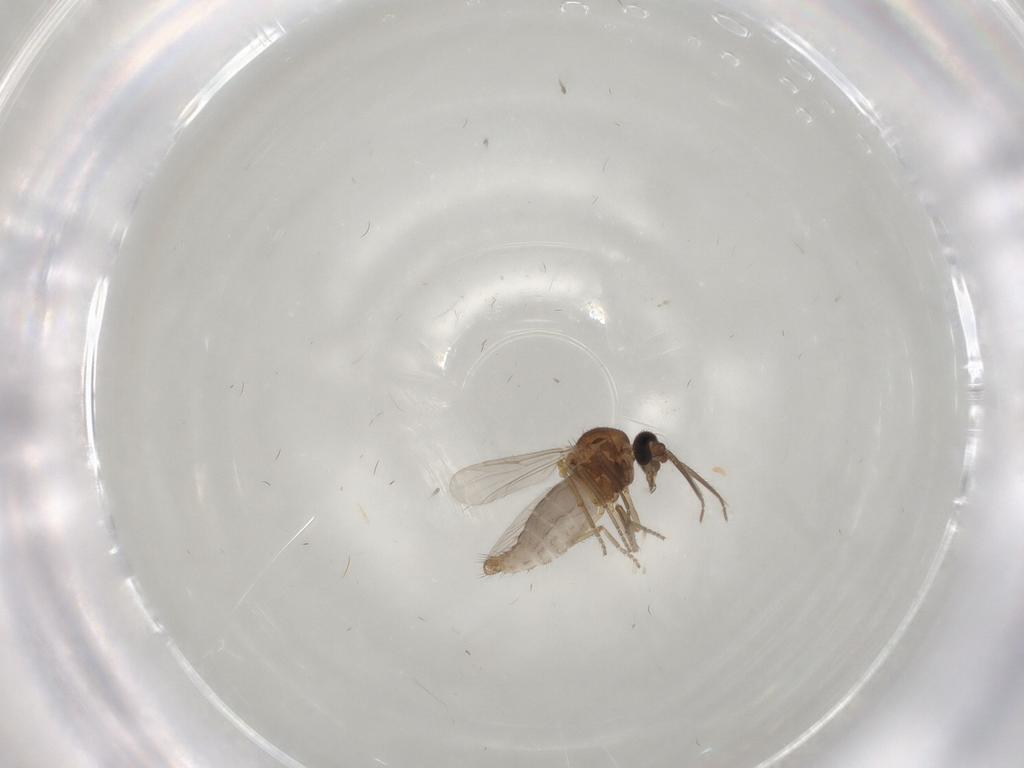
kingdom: Animalia
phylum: Arthropoda
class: Insecta
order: Diptera
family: Ceratopogonidae
